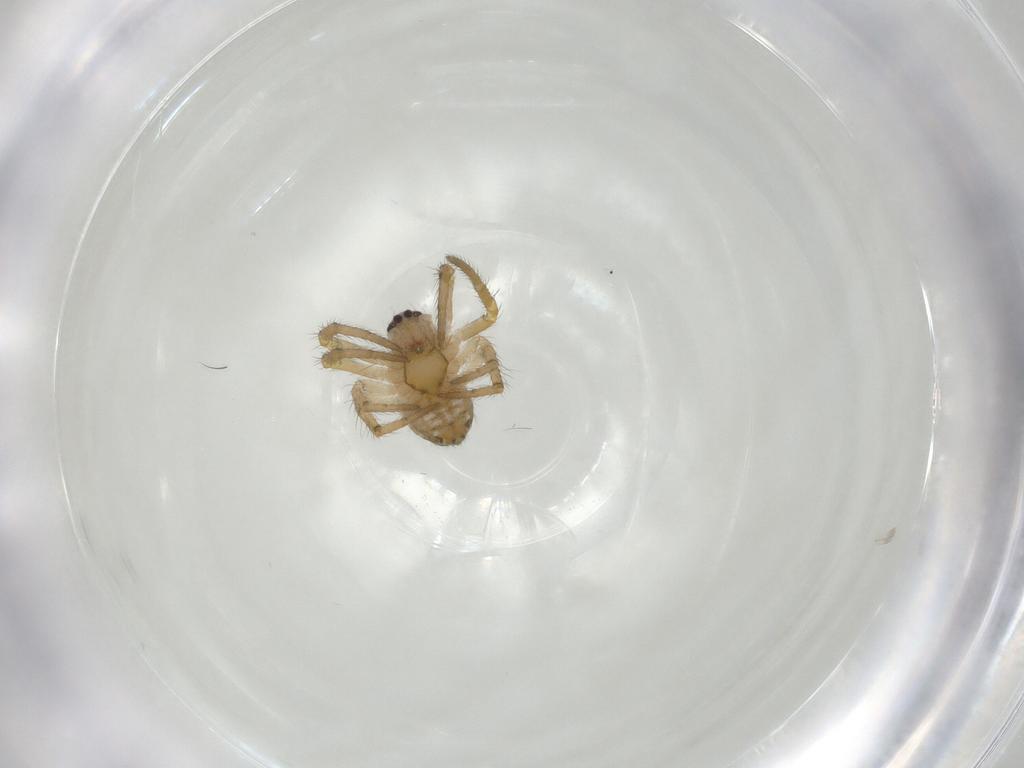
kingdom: Animalia
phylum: Arthropoda
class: Arachnida
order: Araneae
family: Araneidae
